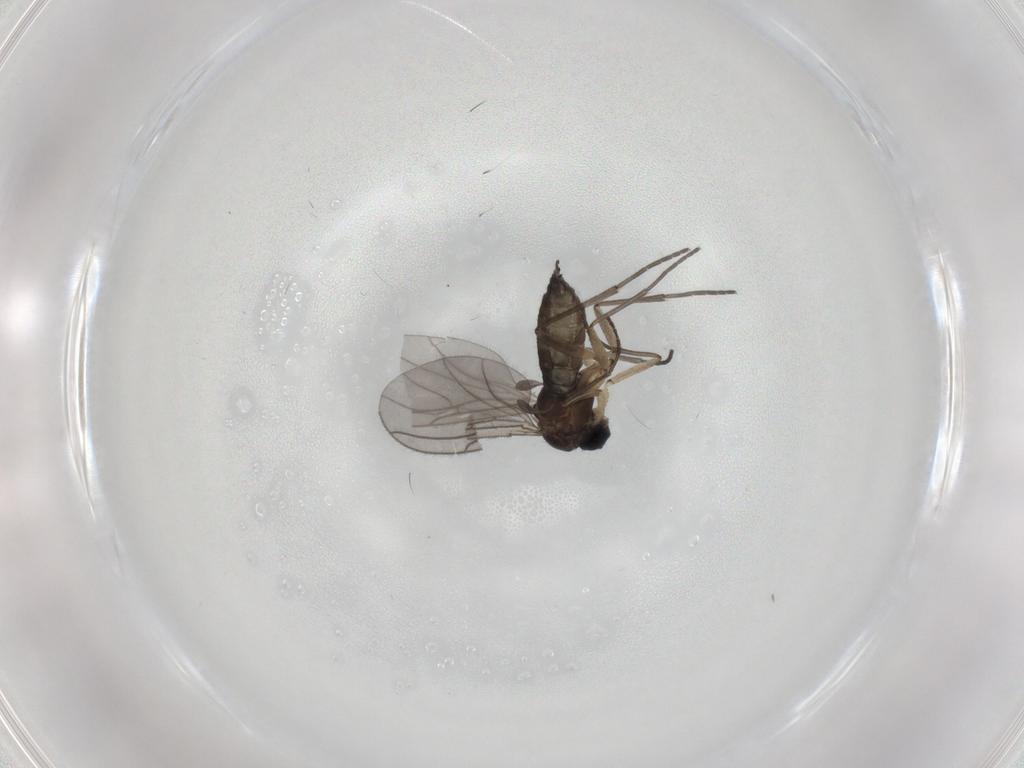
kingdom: Animalia
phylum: Arthropoda
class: Insecta
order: Diptera
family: Sciaridae
